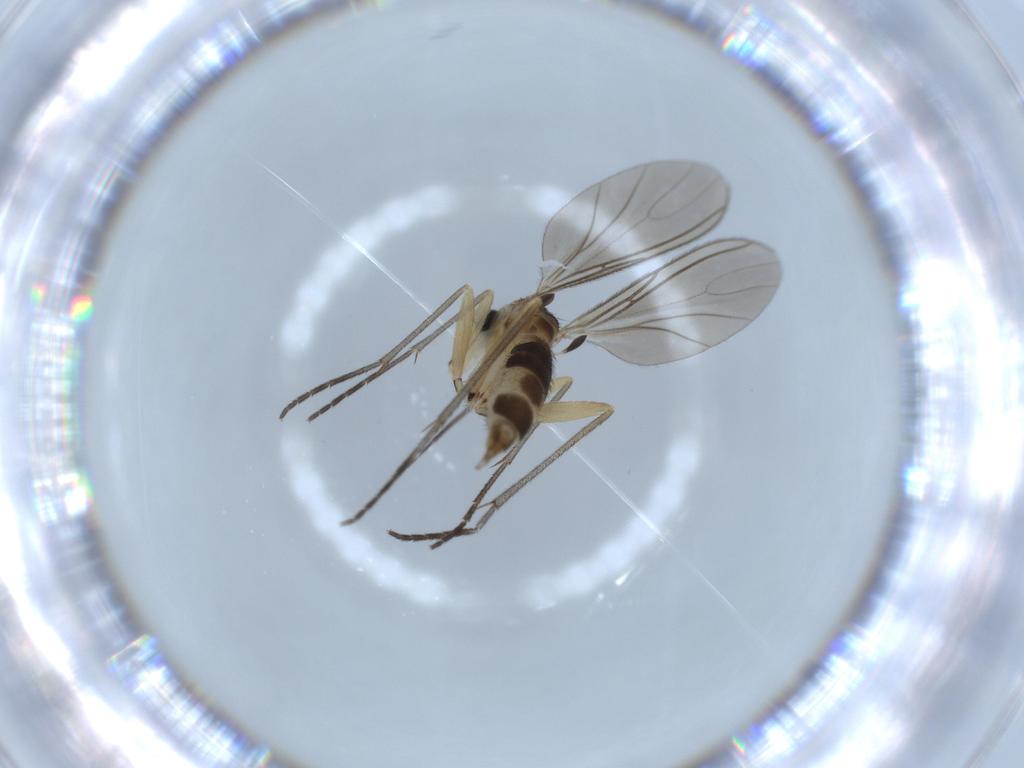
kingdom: Animalia
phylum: Arthropoda
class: Insecta
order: Diptera
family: Sciaridae
